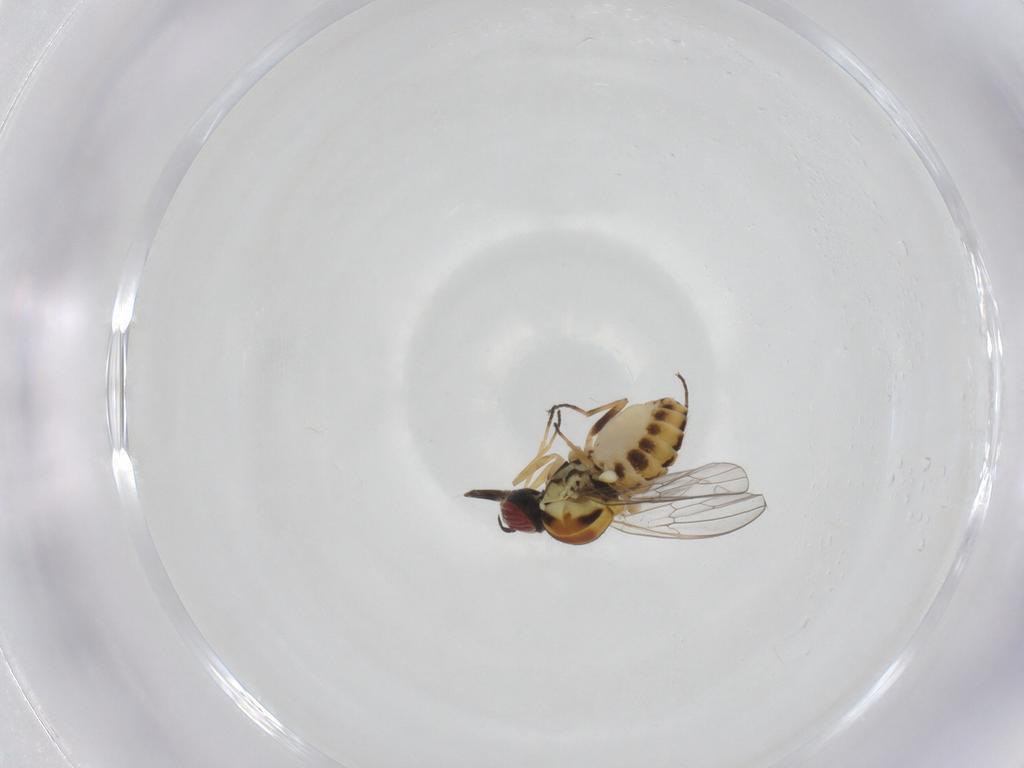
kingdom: Animalia
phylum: Arthropoda
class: Insecta
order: Diptera
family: Bombyliidae
